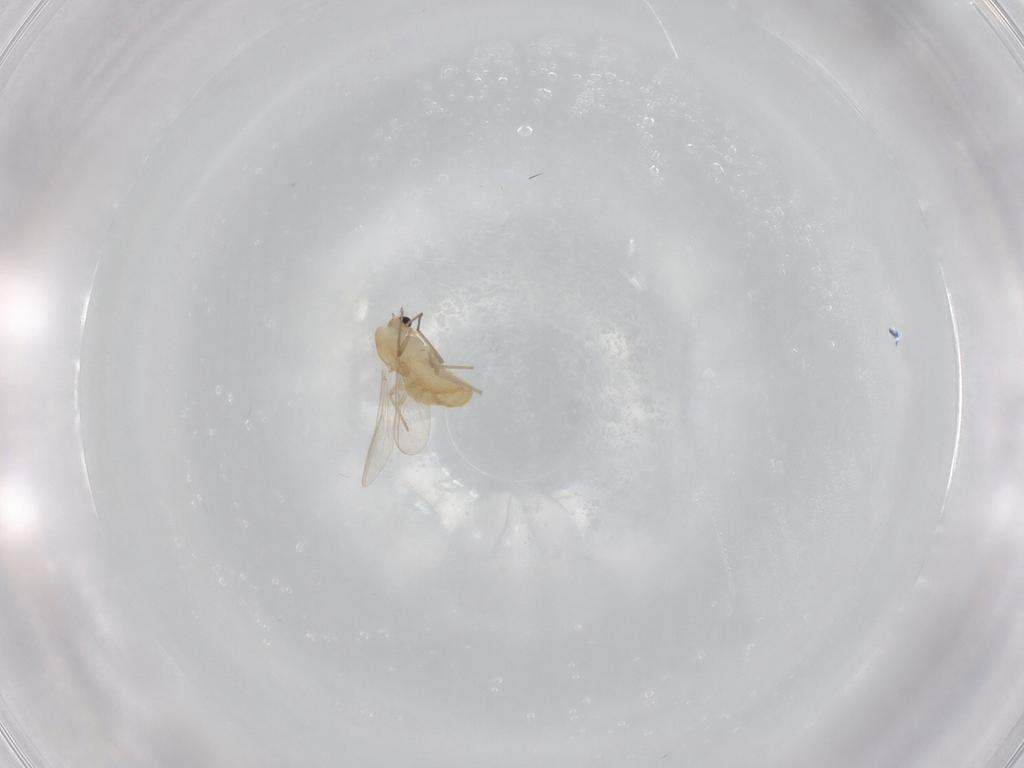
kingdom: Animalia
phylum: Arthropoda
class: Insecta
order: Diptera
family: Chironomidae
